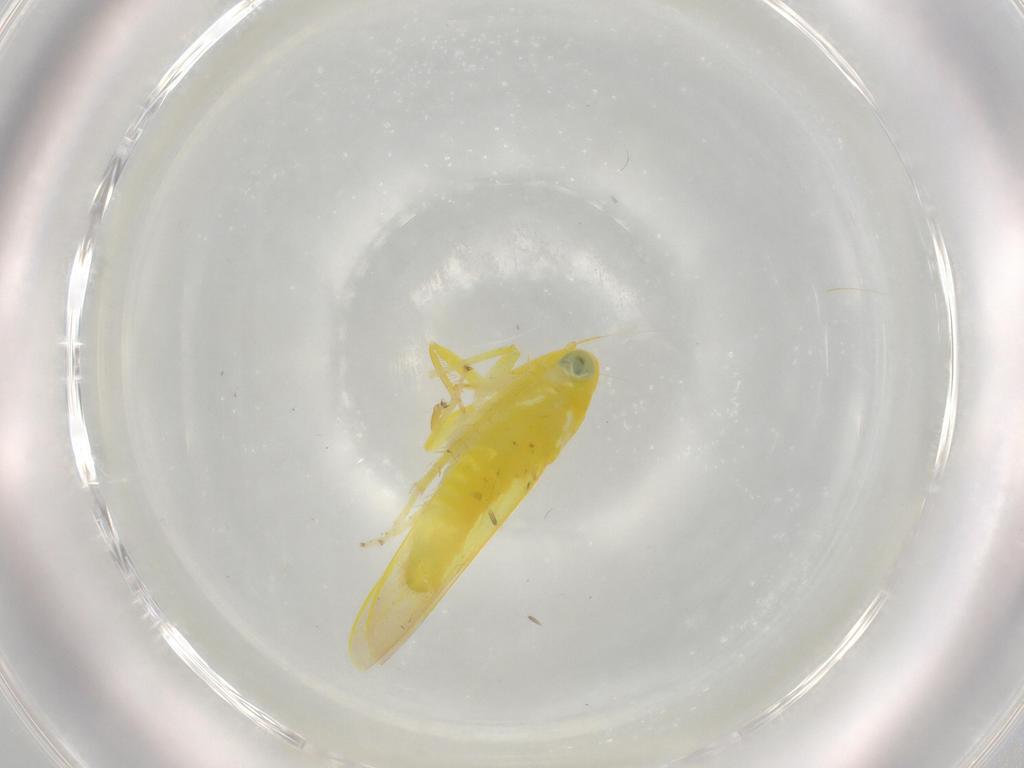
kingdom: Animalia
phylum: Arthropoda
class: Insecta
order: Hemiptera
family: Cicadellidae
